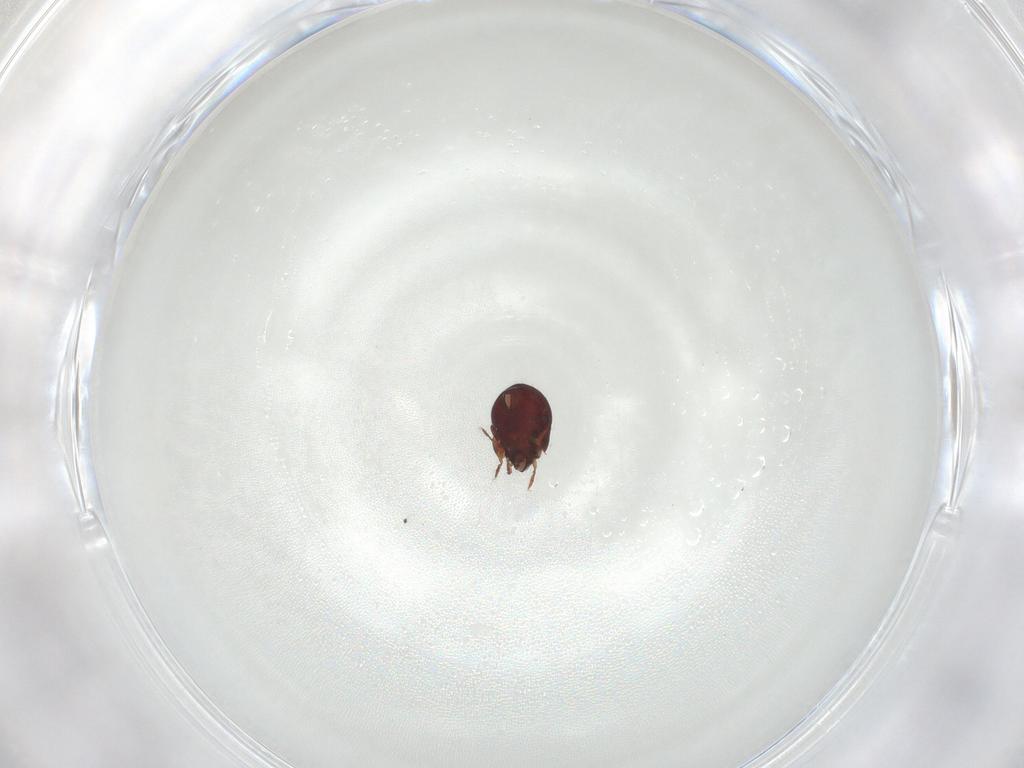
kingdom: Animalia
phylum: Arthropoda
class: Arachnida
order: Sarcoptiformes
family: Humerobatidae
